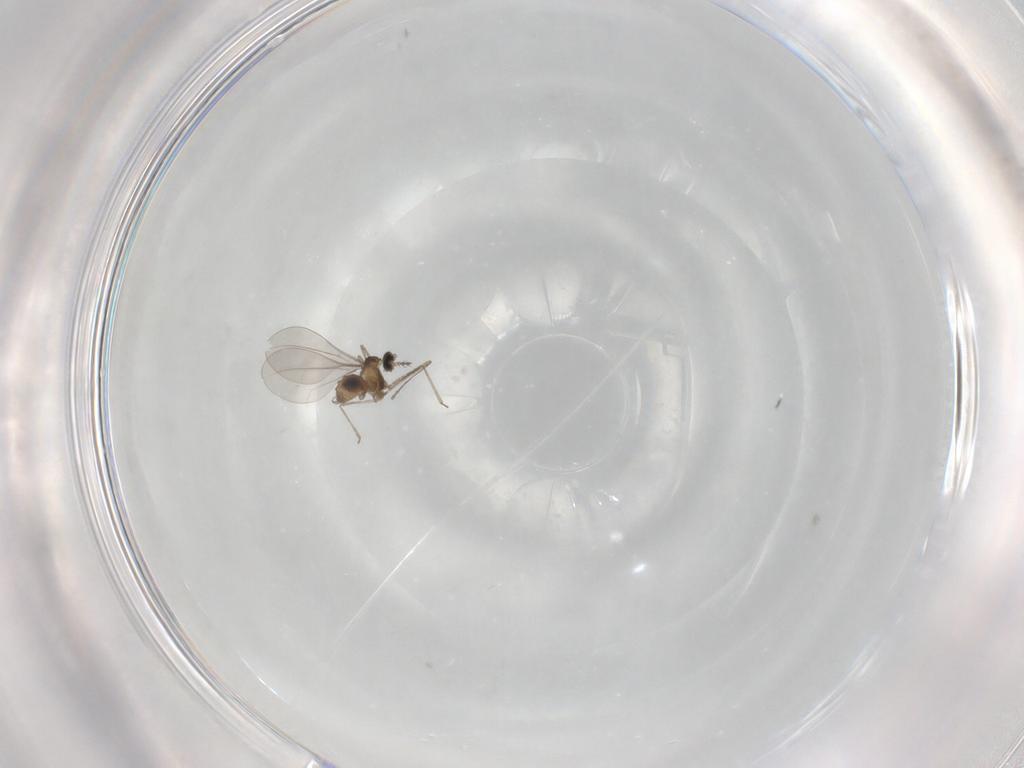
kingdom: Animalia
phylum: Arthropoda
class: Insecta
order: Diptera
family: Cecidomyiidae
